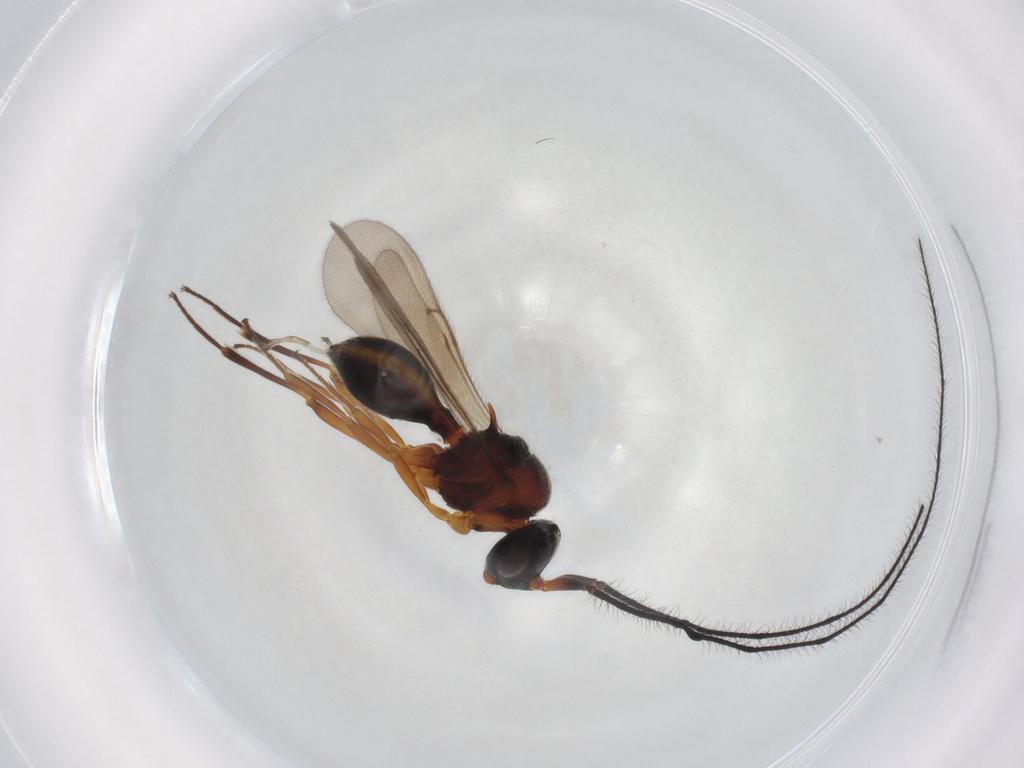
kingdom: Animalia
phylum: Arthropoda
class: Insecta
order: Hymenoptera
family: Scelionidae
